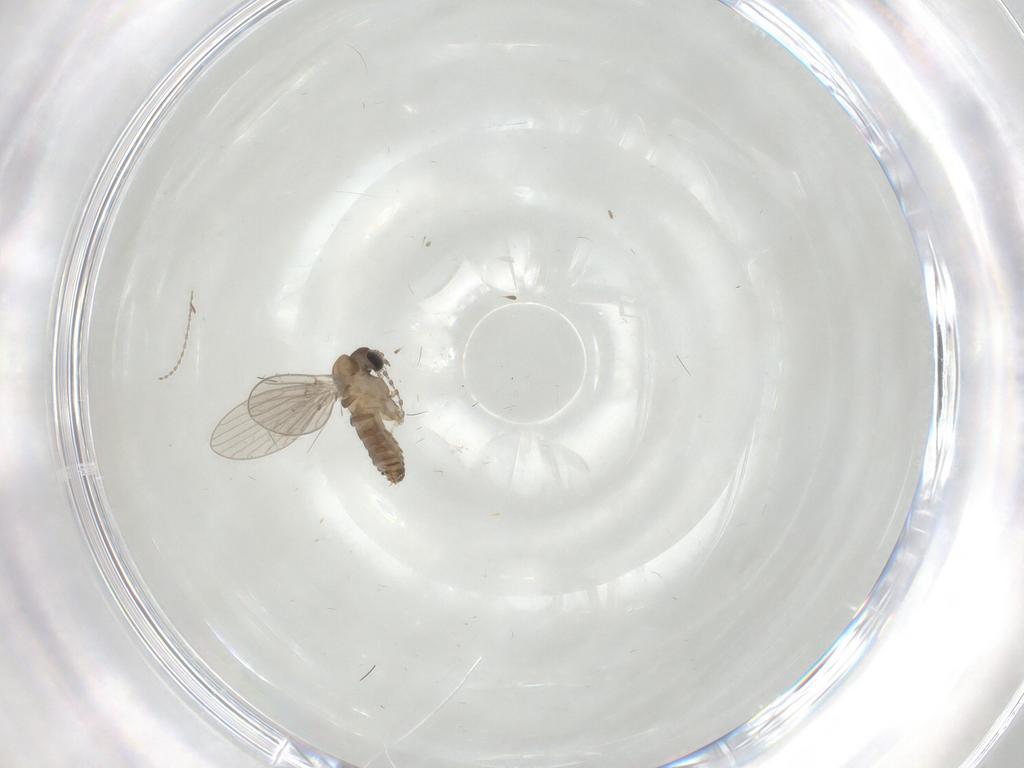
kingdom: Animalia
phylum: Arthropoda
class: Insecta
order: Diptera
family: Psychodidae
